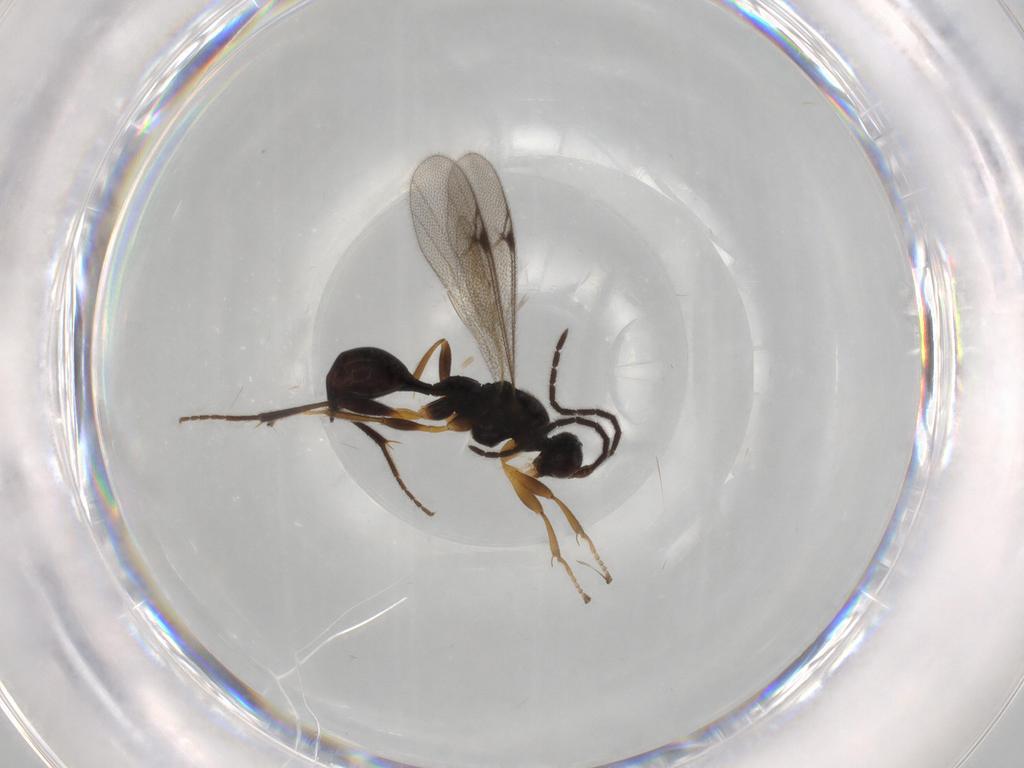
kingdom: Animalia
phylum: Arthropoda
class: Insecta
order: Hymenoptera
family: Proctotrupidae
